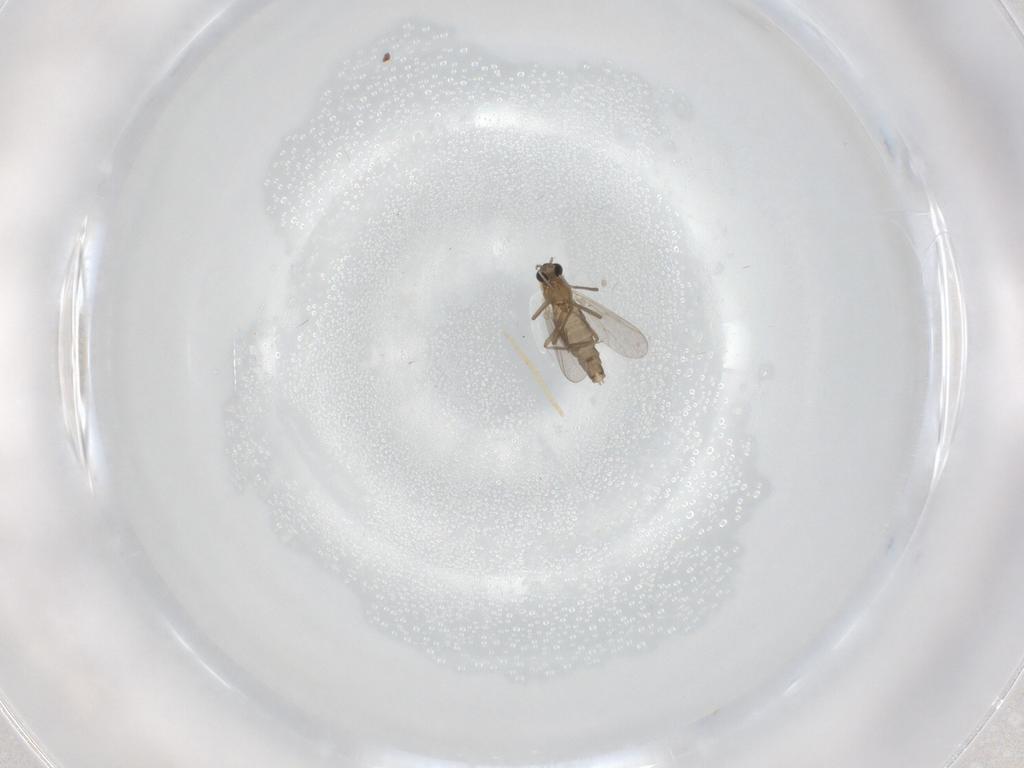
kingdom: Animalia
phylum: Arthropoda
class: Insecta
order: Diptera
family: Chironomidae
